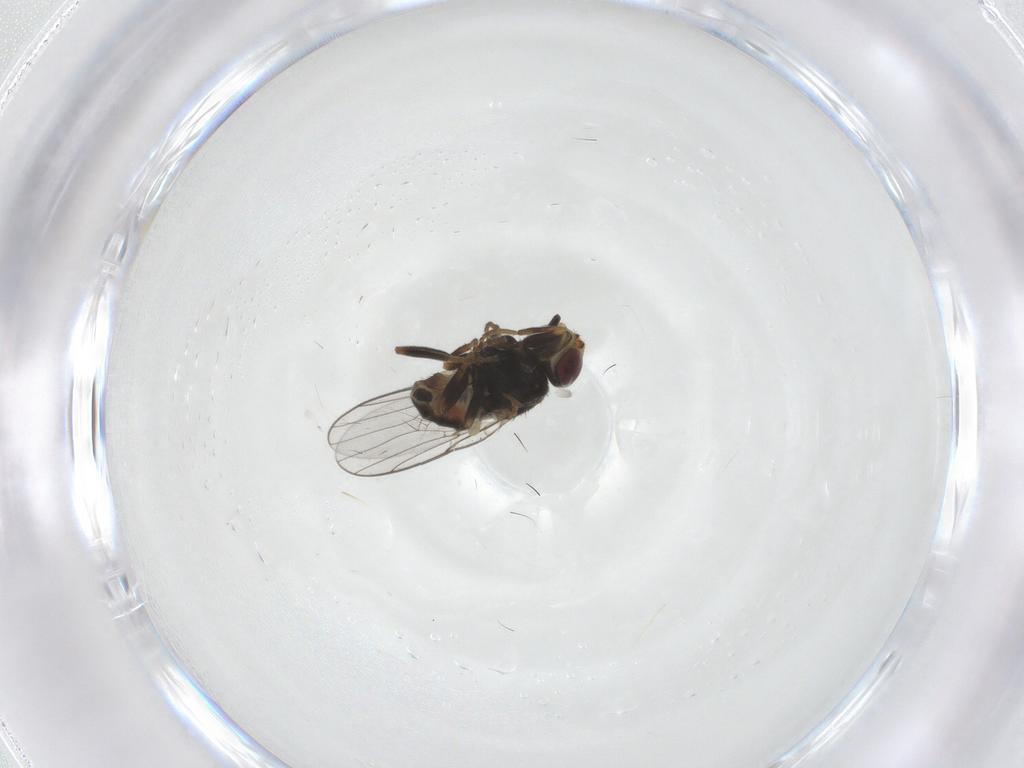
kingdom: Animalia
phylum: Arthropoda
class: Insecta
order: Diptera
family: Chloropidae
